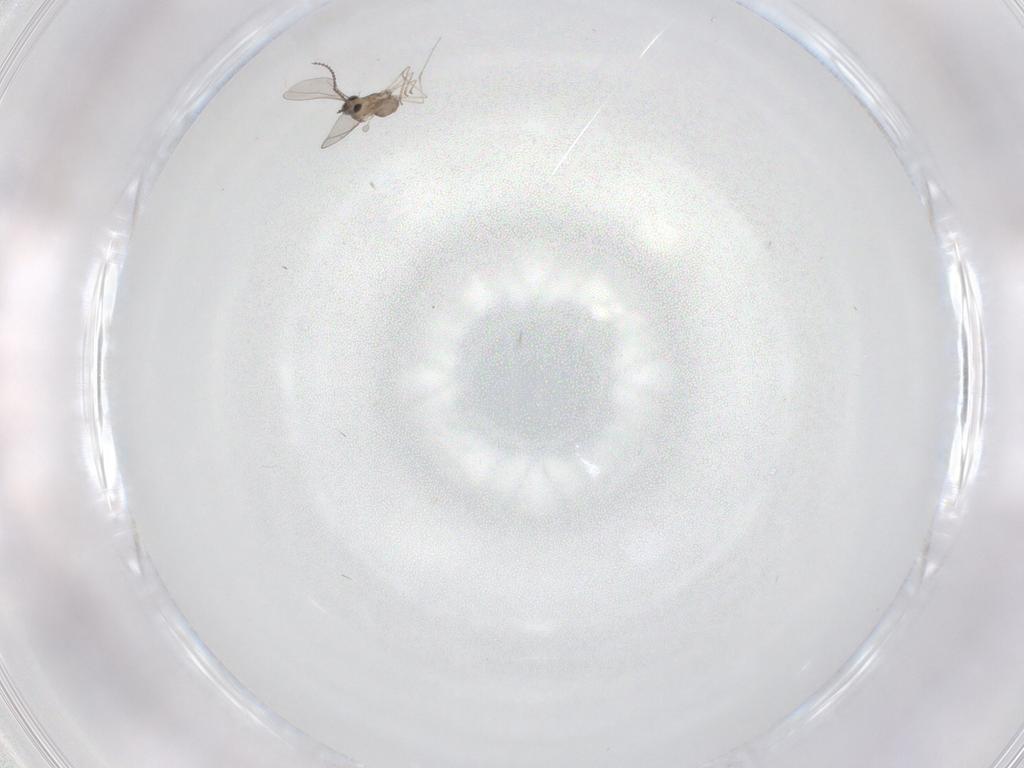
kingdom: Animalia
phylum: Arthropoda
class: Insecta
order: Diptera
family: Cecidomyiidae
